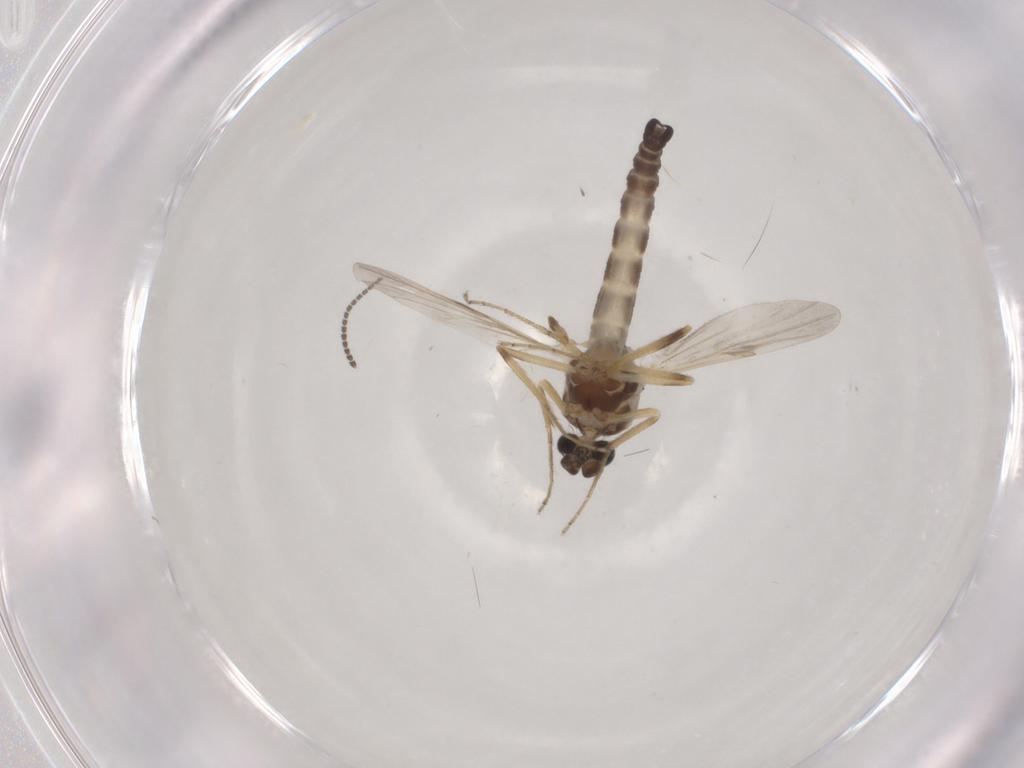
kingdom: Animalia
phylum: Arthropoda
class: Insecta
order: Diptera
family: Ceratopogonidae
